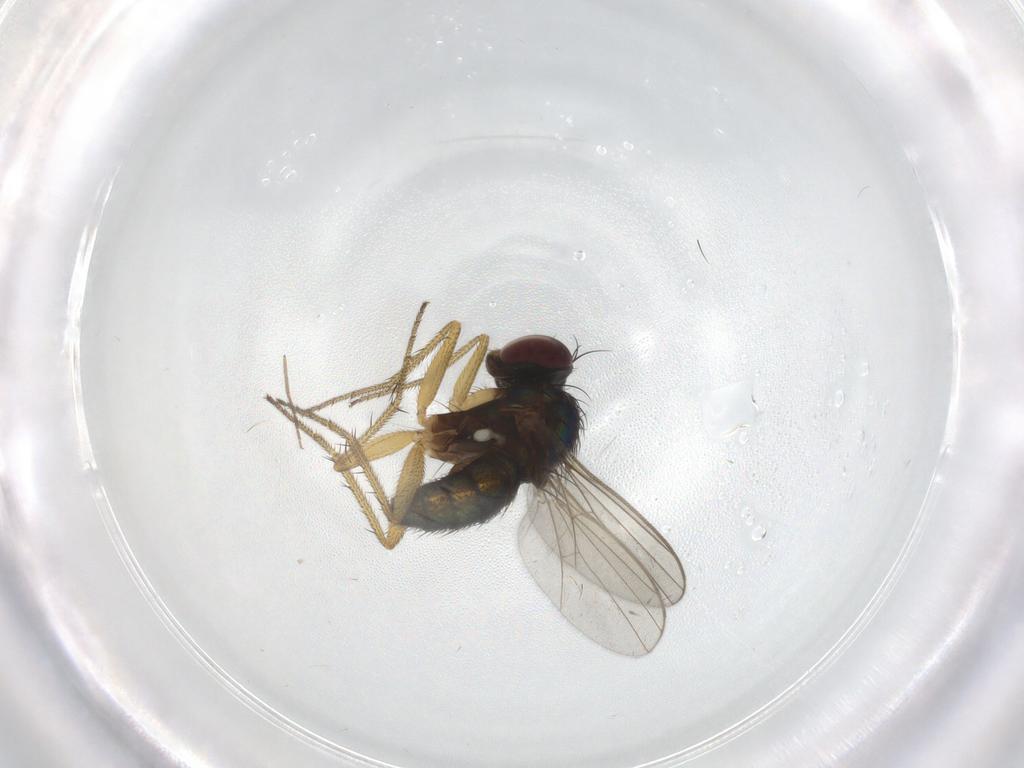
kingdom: Animalia
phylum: Arthropoda
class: Insecta
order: Diptera
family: Dolichopodidae
